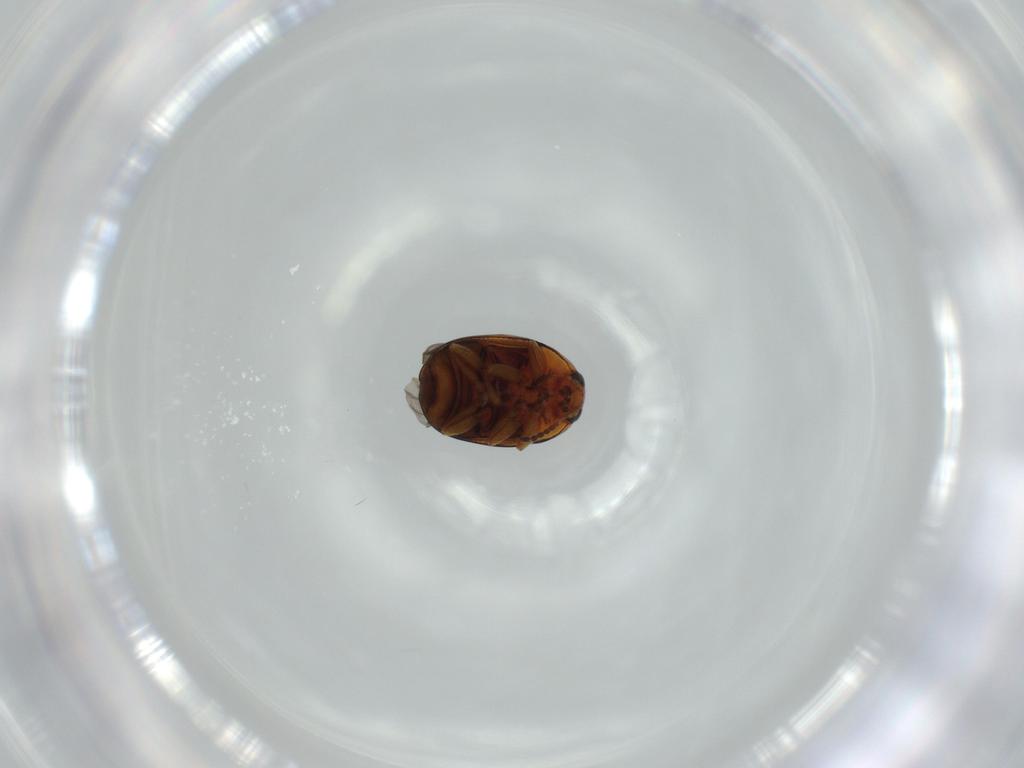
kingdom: Animalia
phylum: Arthropoda
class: Insecta
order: Coleoptera
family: Chrysomelidae
